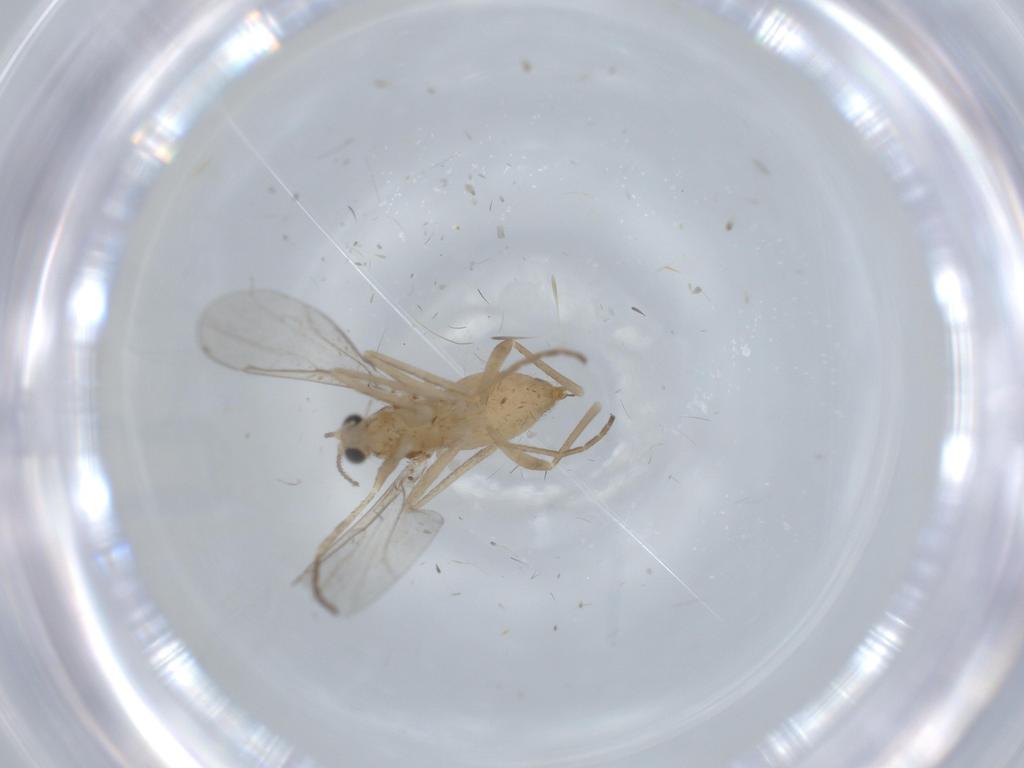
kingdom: Animalia
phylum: Arthropoda
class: Insecta
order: Diptera
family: Cecidomyiidae
